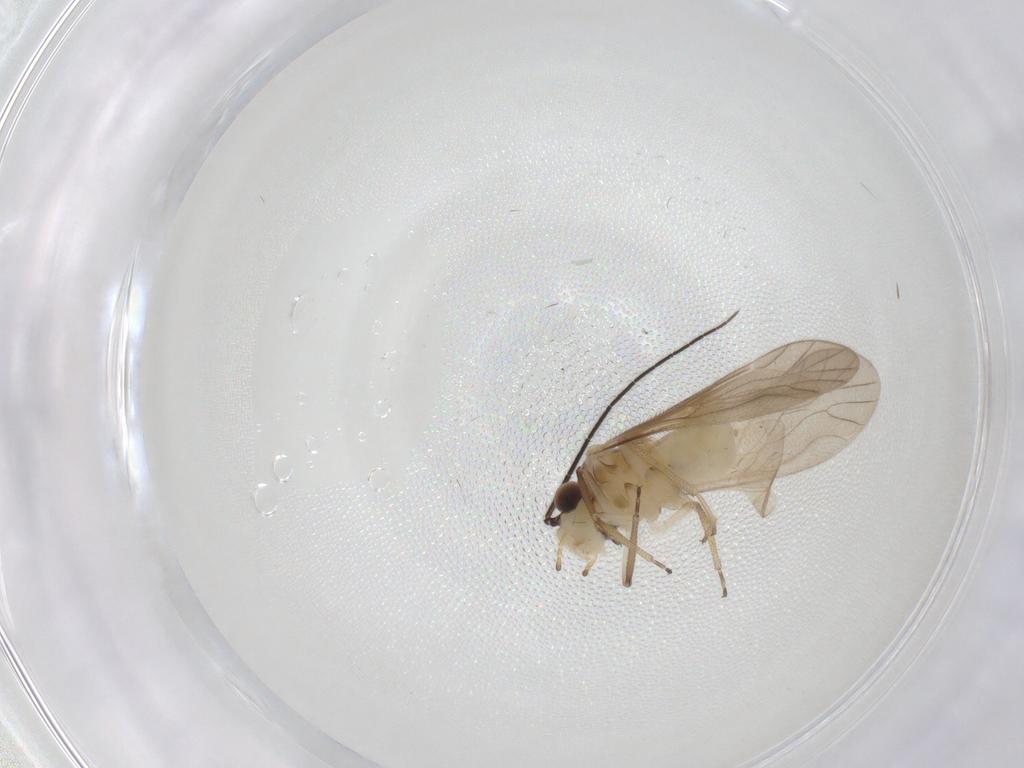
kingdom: Animalia
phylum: Arthropoda
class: Insecta
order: Psocodea
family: Caeciliusidae
